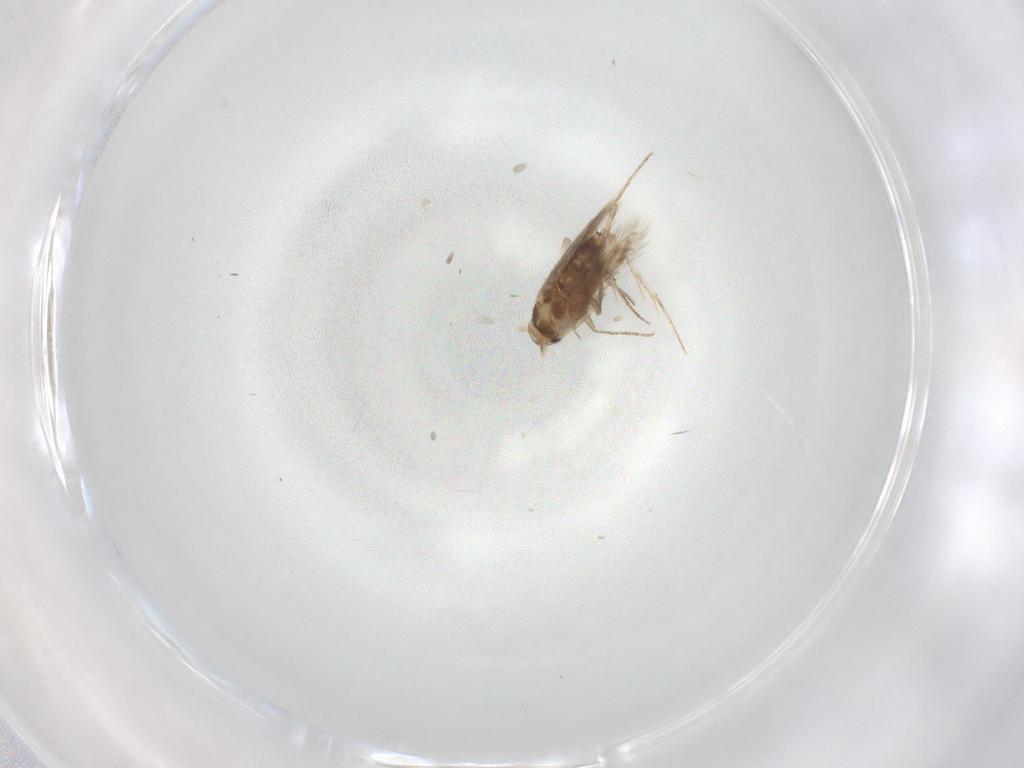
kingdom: Animalia
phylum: Arthropoda
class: Insecta
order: Lepidoptera
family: Nymphalidae
